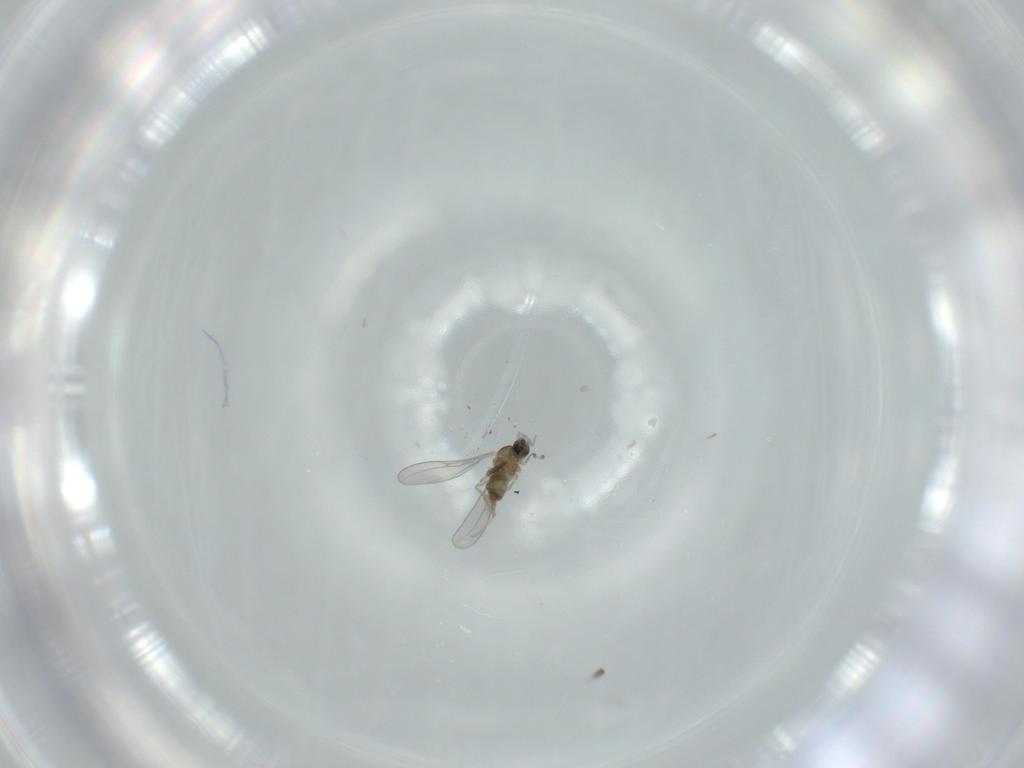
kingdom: Animalia
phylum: Arthropoda
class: Insecta
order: Diptera
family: Cecidomyiidae
